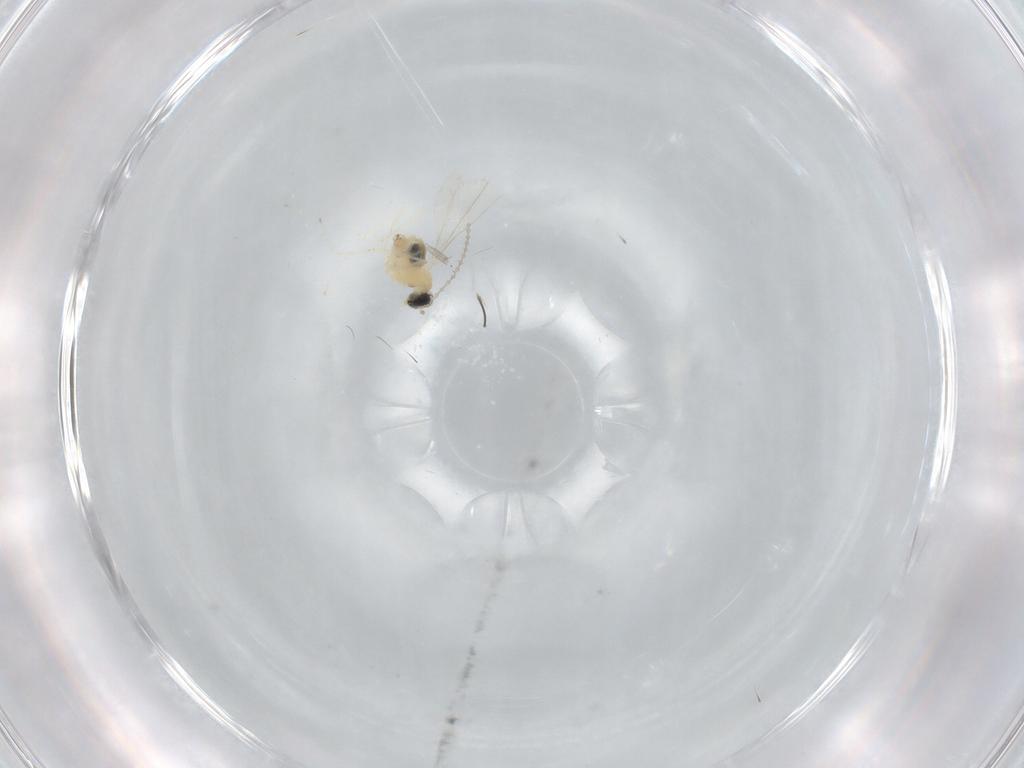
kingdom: Animalia
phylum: Arthropoda
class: Insecta
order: Diptera
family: Cecidomyiidae
